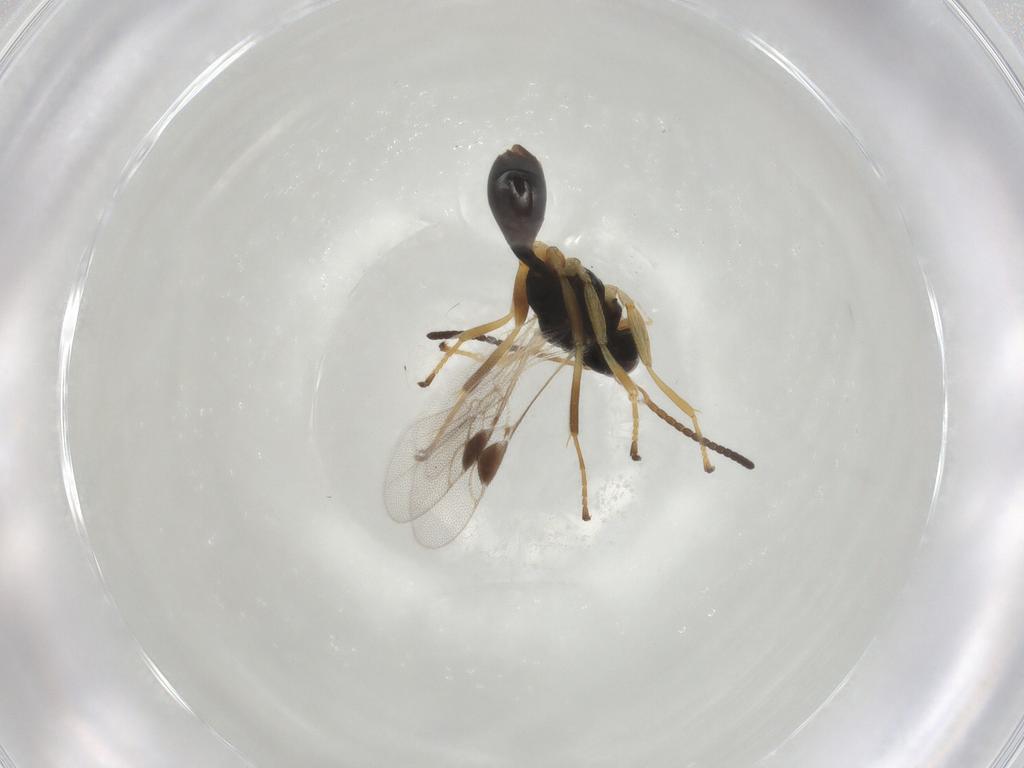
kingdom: Animalia
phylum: Arthropoda
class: Insecta
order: Hymenoptera
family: Braconidae
